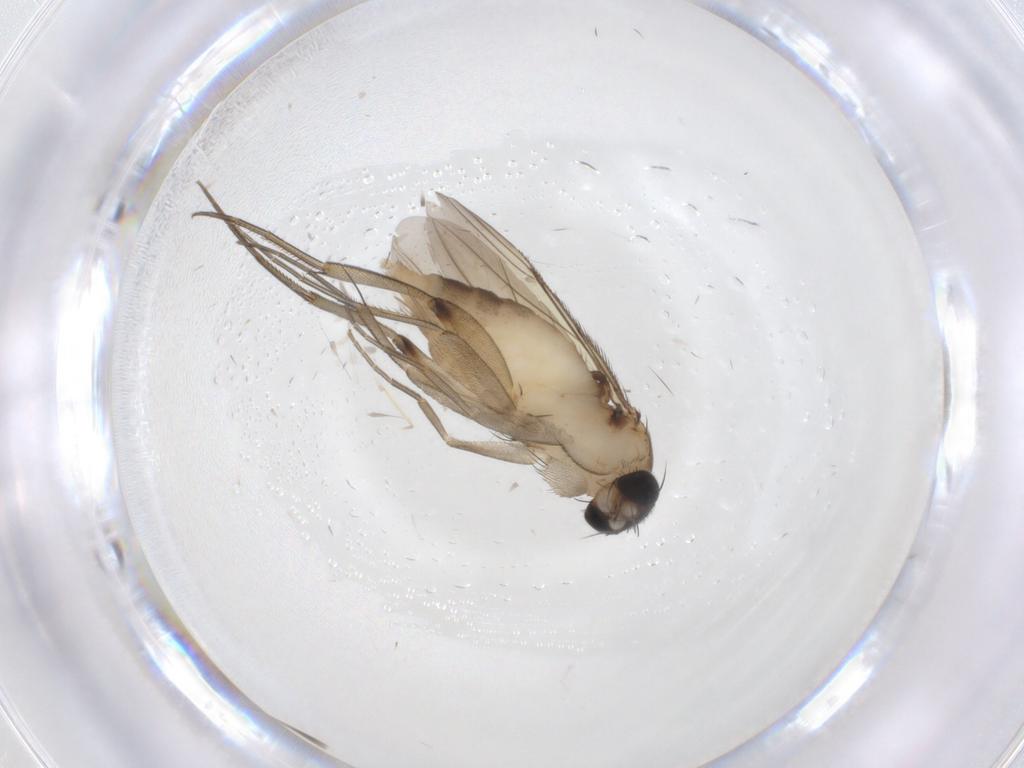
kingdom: Animalia
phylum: Arthropoda
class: Insecta
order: Diptera
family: Phoridae
